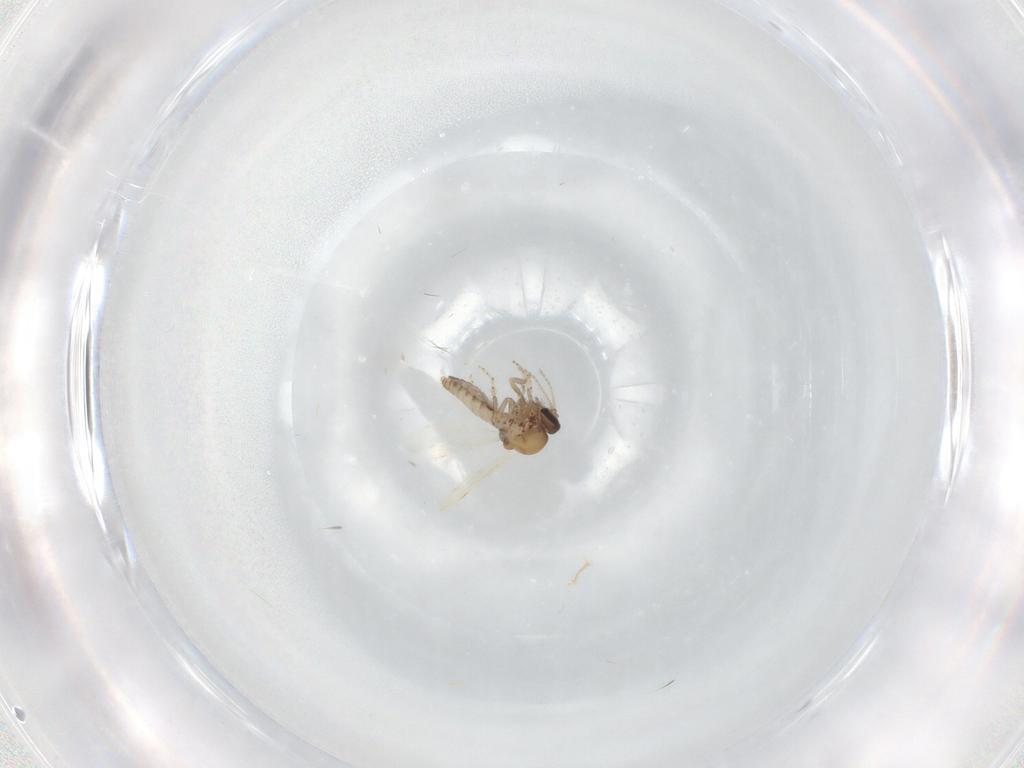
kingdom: Animalia
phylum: Arthropoda
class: Insecta
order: Diptera
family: Ceratopogonidae
